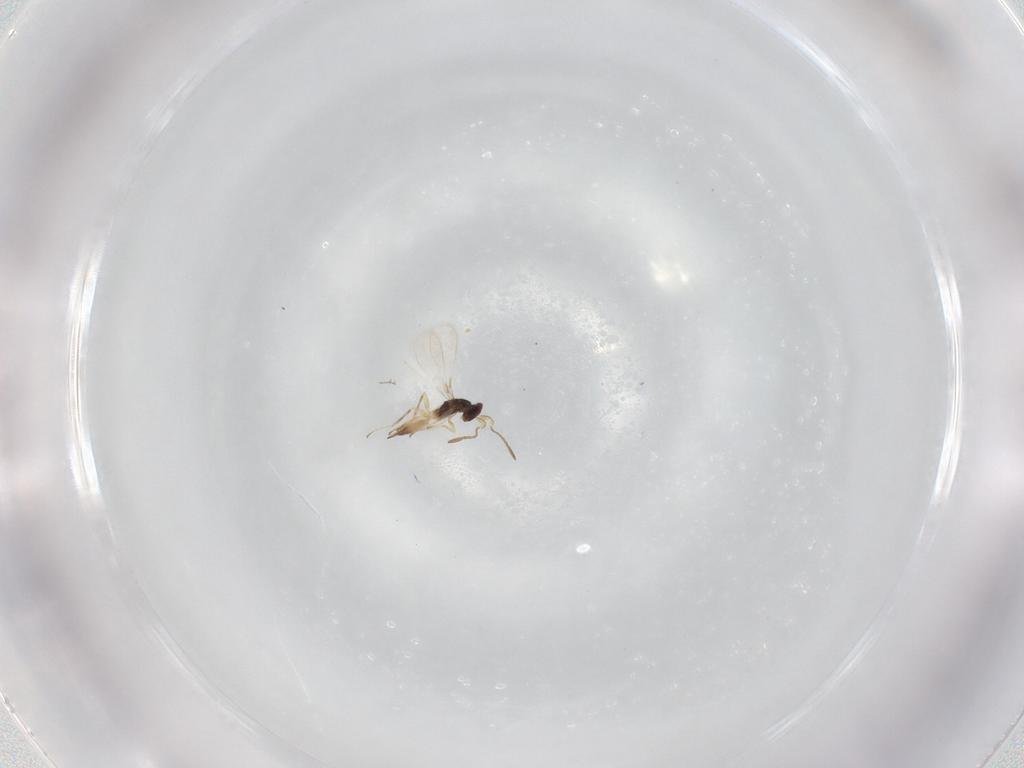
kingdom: Animalia
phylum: Arthropoda
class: Insecta
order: Hymenoptera
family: Mymaridae
